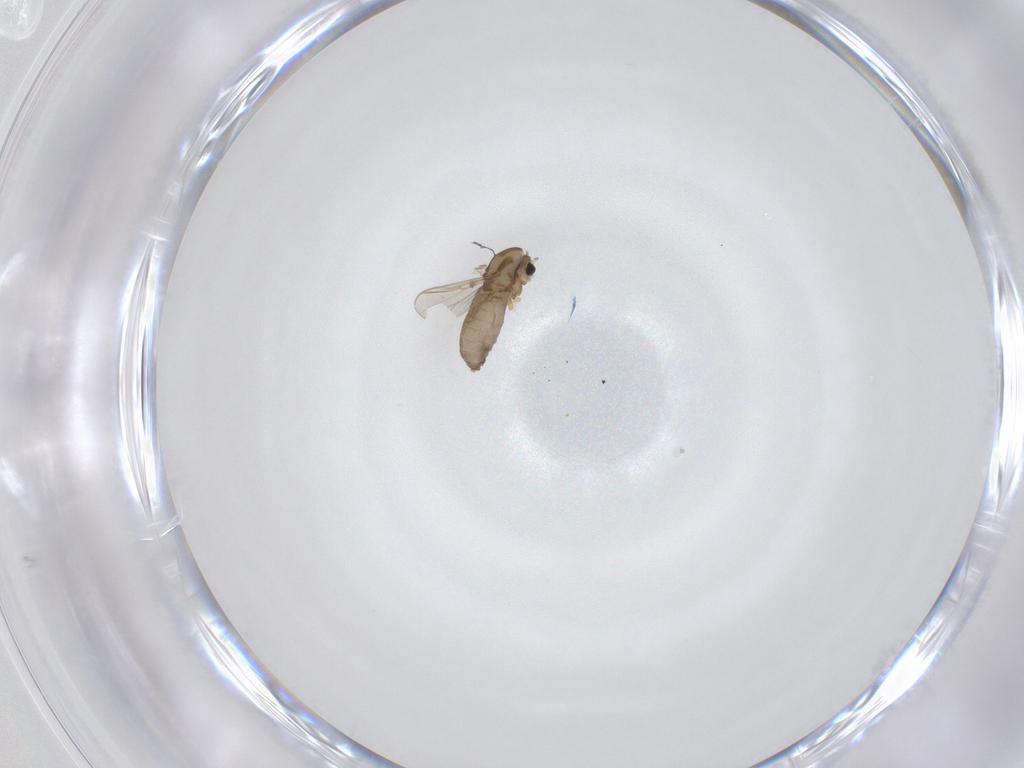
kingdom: Animalia
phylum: Arthropoda
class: Insecta
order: Diptera
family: Chironomidae
